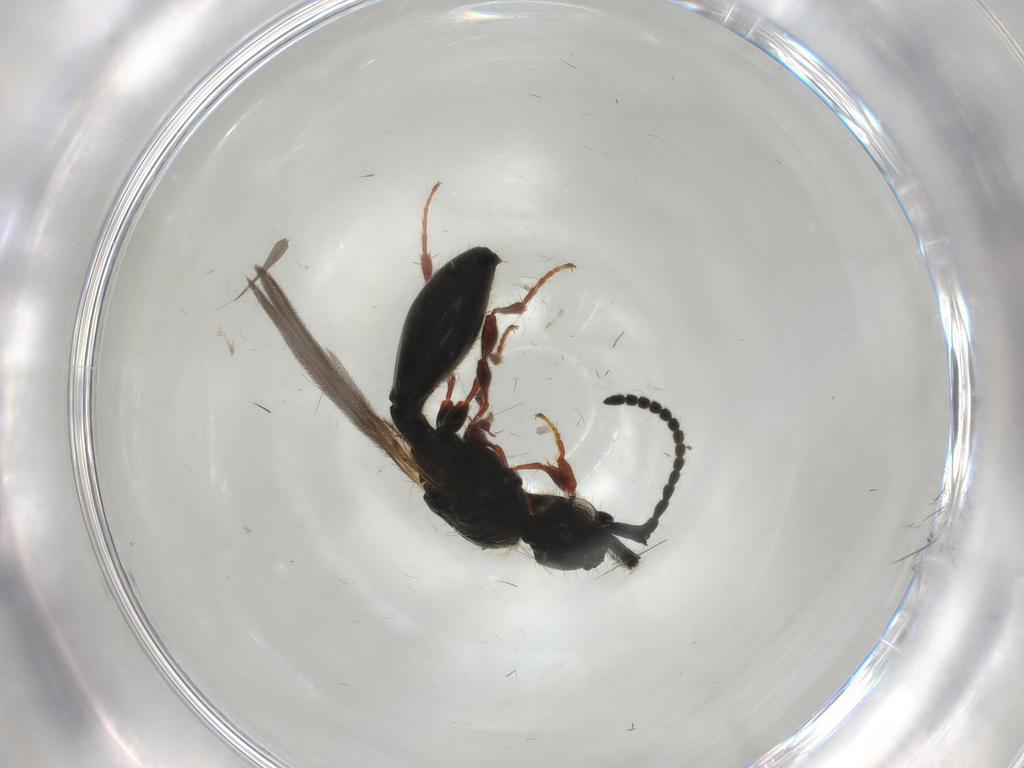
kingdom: Animalia
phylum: Arthropoda
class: Insecta
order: Hymenoptera
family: Diapriidae
